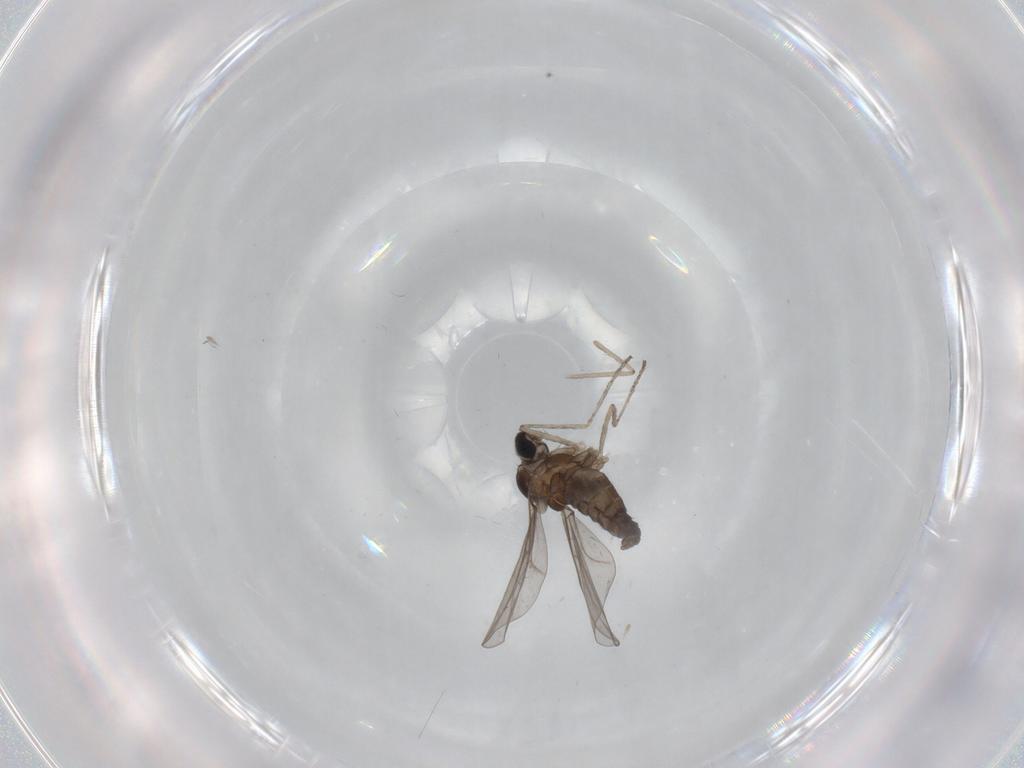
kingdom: Animalia
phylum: Arthropoda
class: Insecta
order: Diptera
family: Cecidomyiidae
